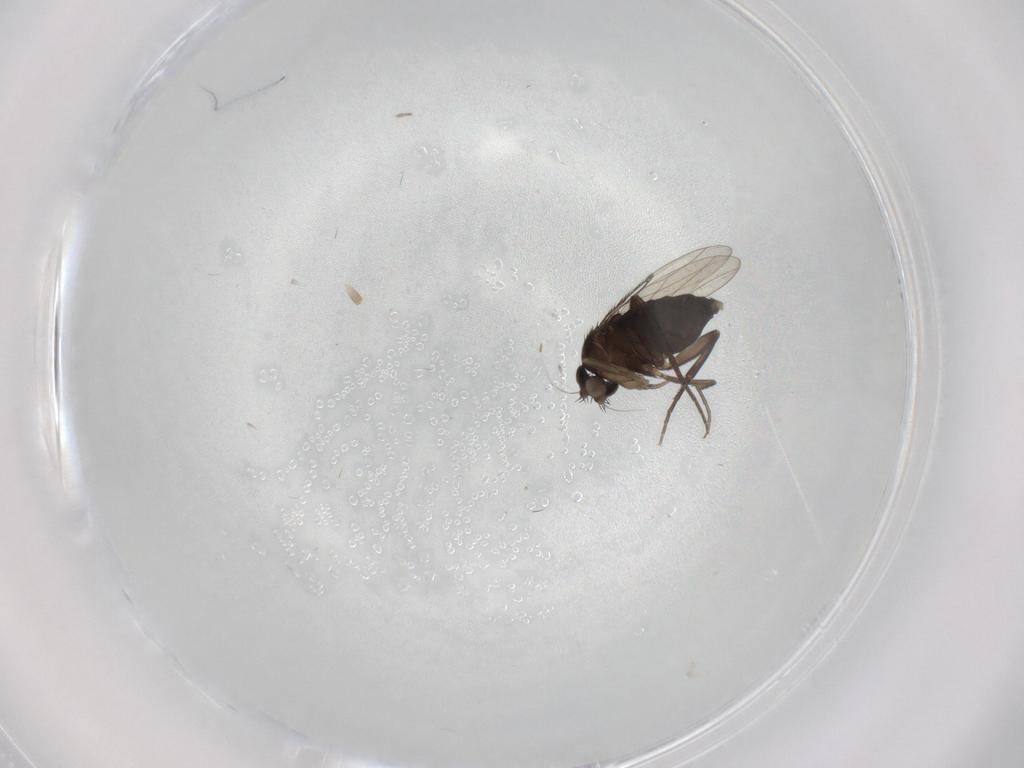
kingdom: Animalia
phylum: Arthropoda
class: Insecta
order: Diptera
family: Phoridae
